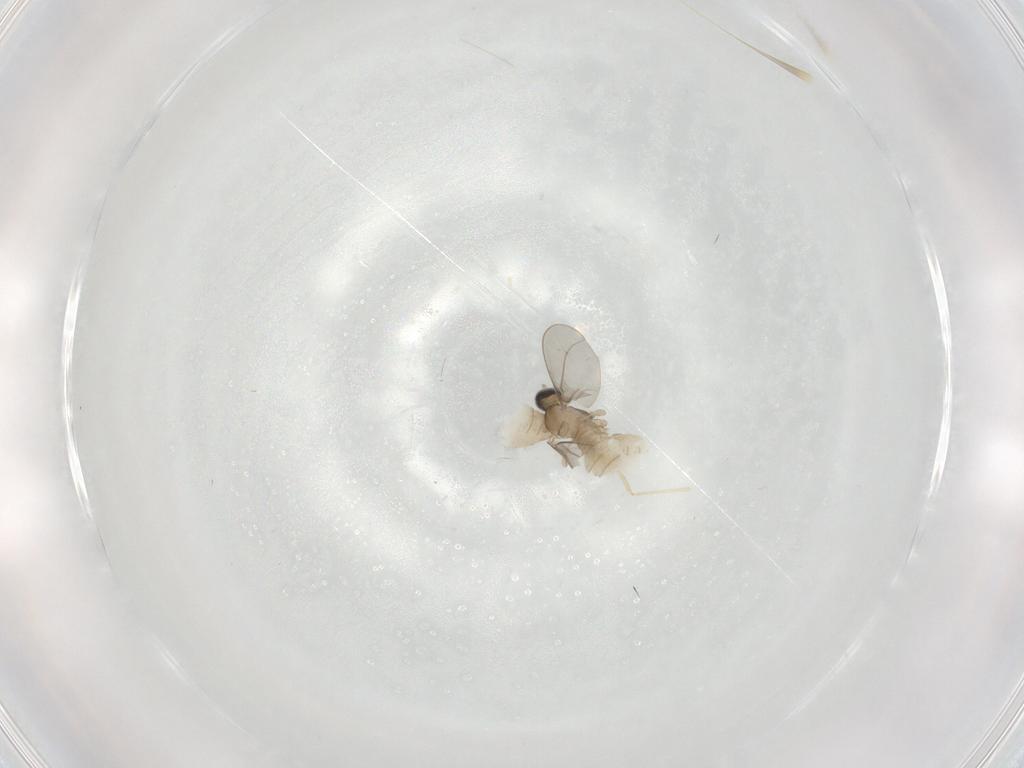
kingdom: Animalia
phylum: Arthropoda
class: Insecta
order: Diptera
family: Cecidomyiidae
